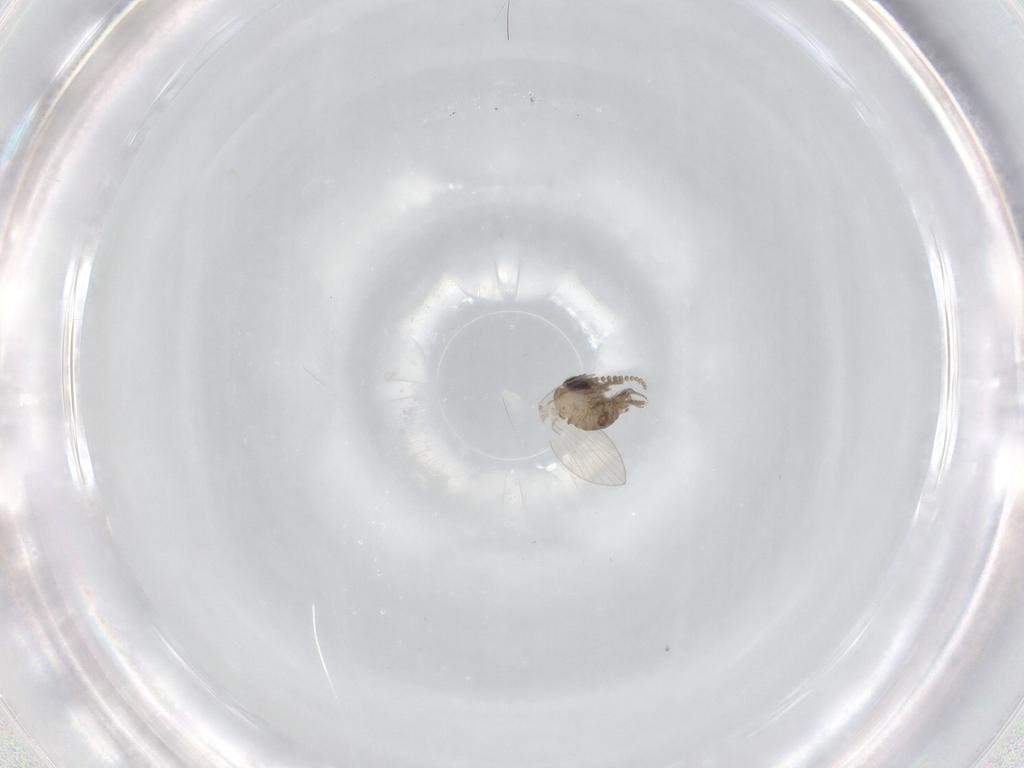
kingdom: Animalia
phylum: Arthropoda
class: Insecta
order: Diptera
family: Psychodidae
